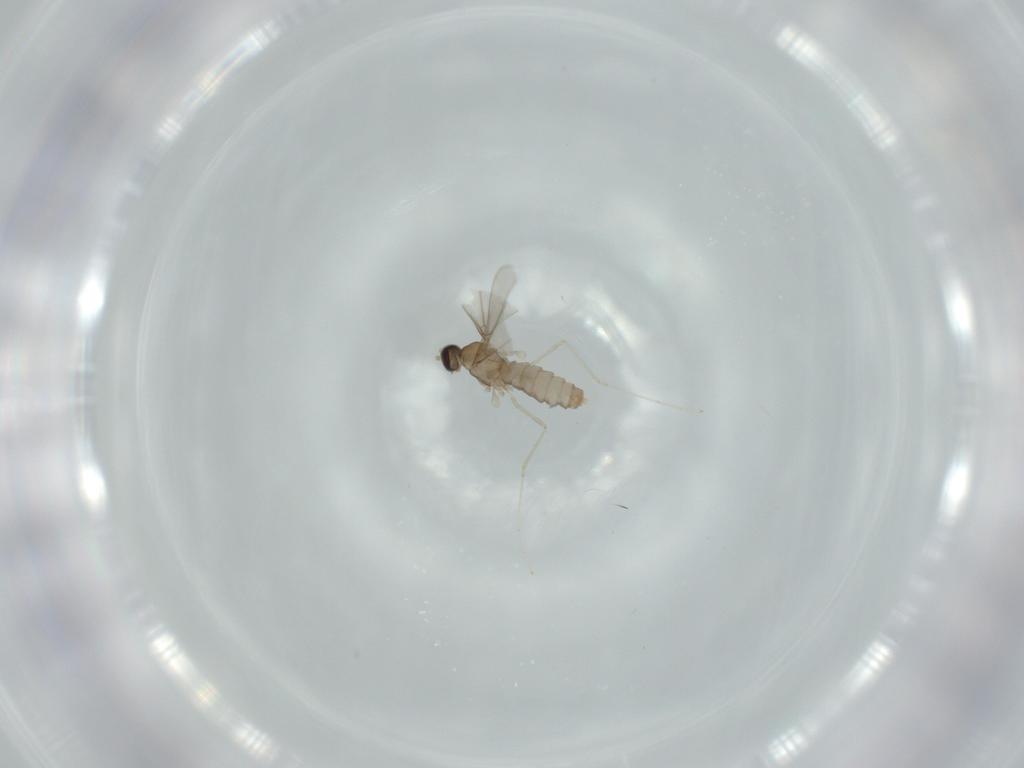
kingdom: Animalia
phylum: Arthropoda
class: Insecta
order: Diptera
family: Cecidomyiidae
